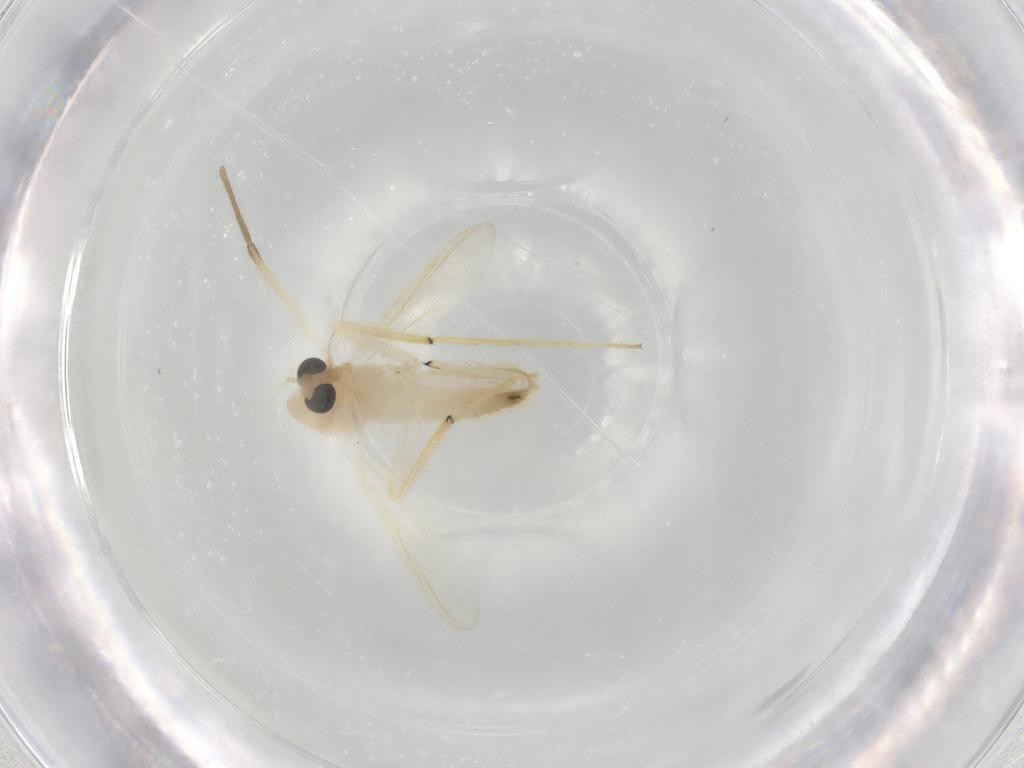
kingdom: Animalia
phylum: Arthropoda
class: Insecta
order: Diptera
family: Chironomidae
